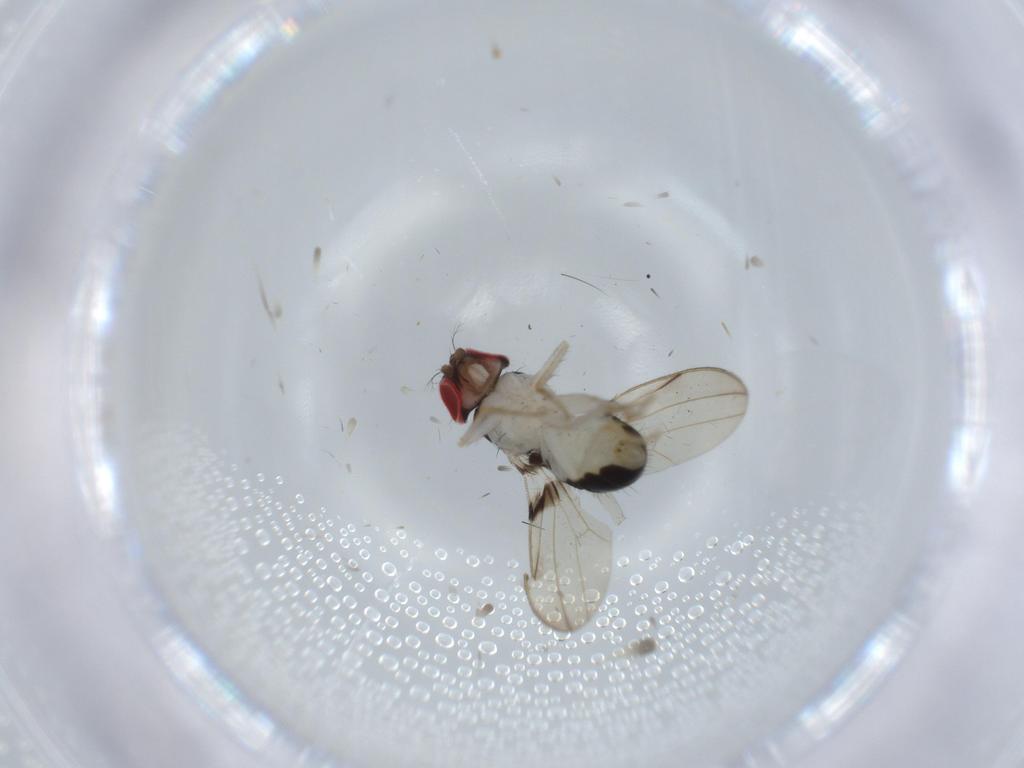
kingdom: Animalia
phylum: Arthropoda
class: Insecta
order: Diptera
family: Drosophilidae
